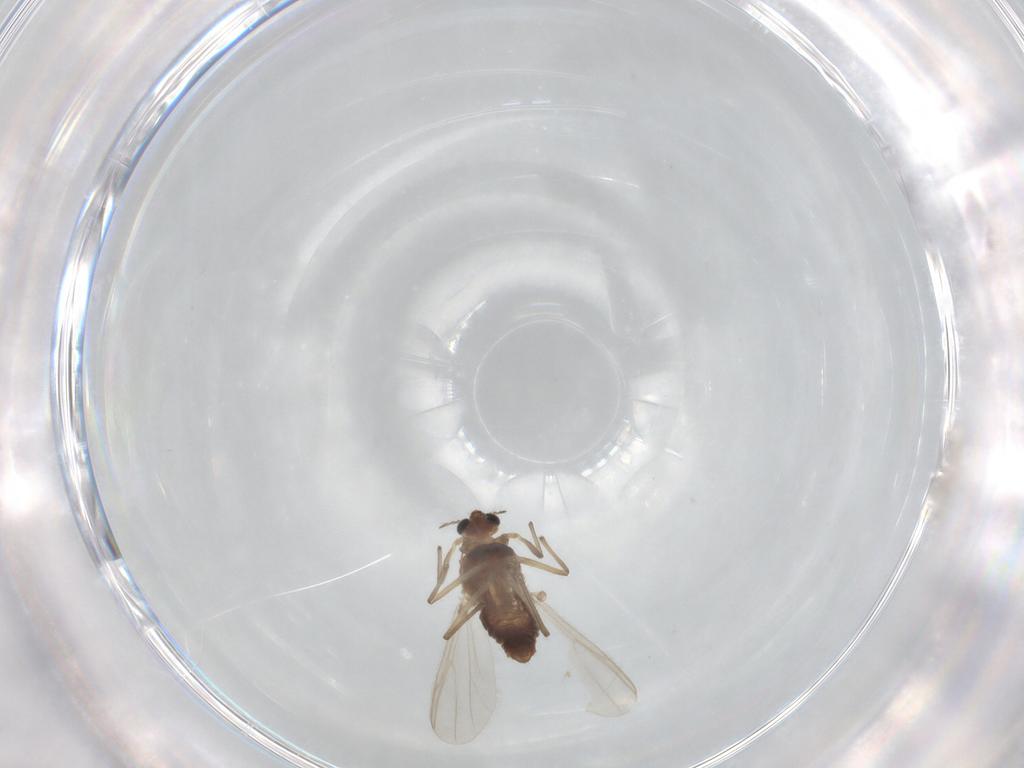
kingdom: Animalia
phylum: Arthropoda
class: Insecta
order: Diptera
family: Chironomidae
